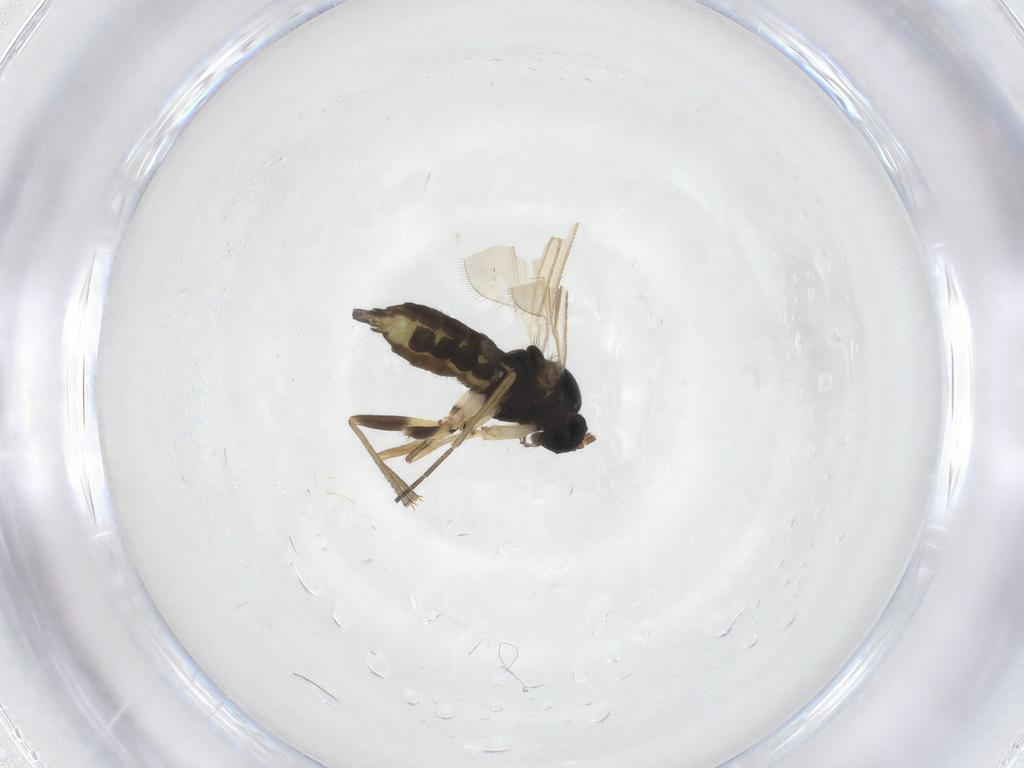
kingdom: Animalia
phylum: Arthropoda
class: Insecta
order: Diptera
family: Sciaridae
